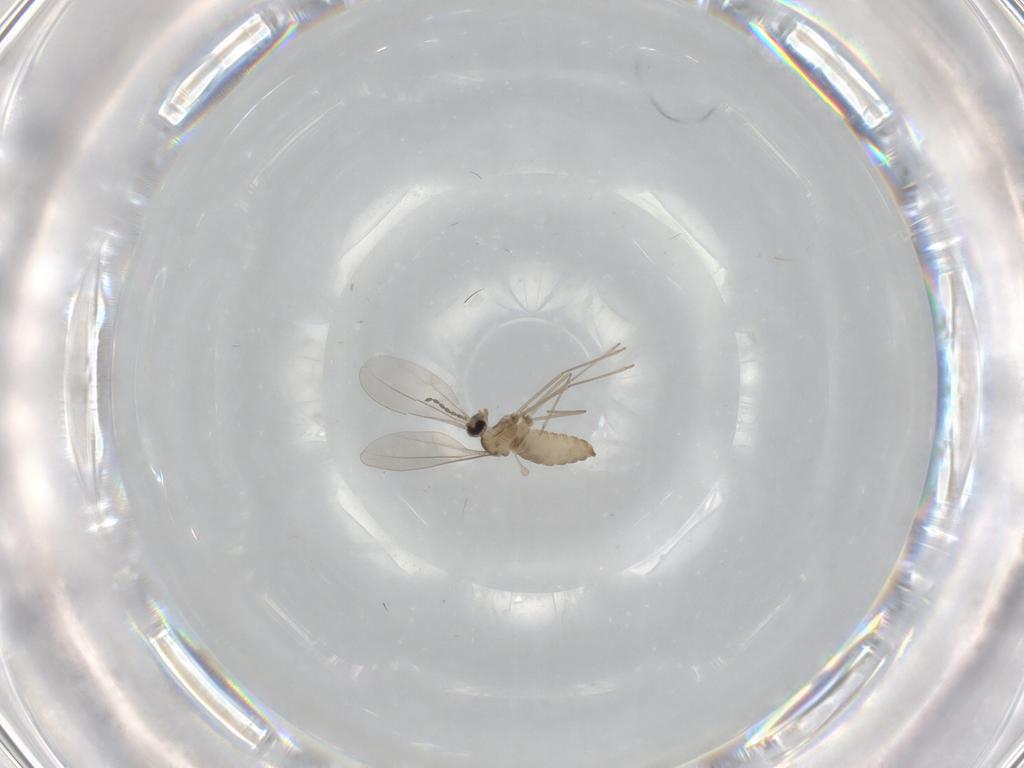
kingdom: Animalia
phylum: Arthropoda
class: Insecta
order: Diptera
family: Cecidomyiidae
